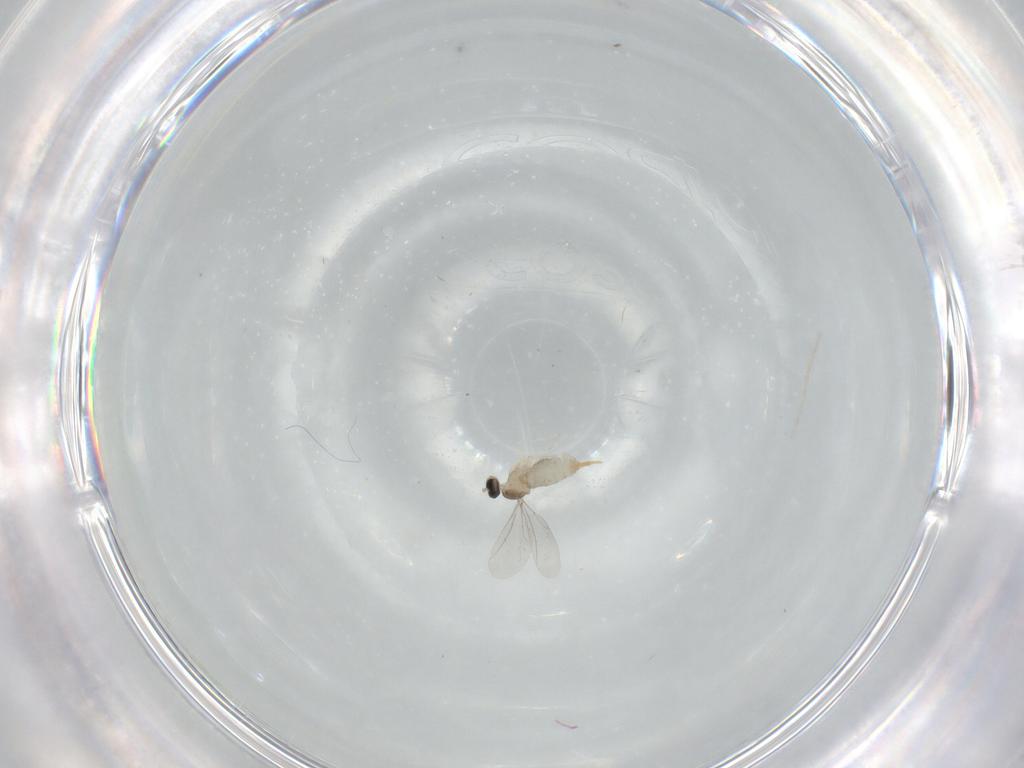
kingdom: Animalia
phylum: Arthropoda
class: Insecta
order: Diptera
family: Cecidomyiidae
